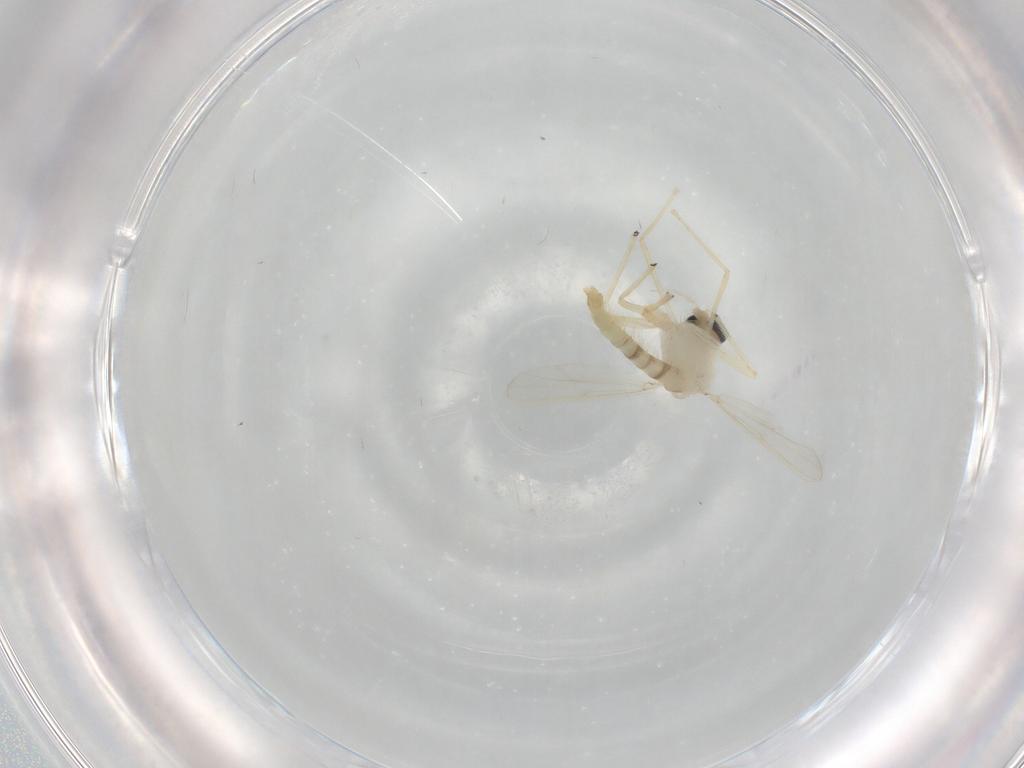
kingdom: Animalia
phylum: Arthropoda
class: Insecta
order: Diptera
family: Chironomidae
